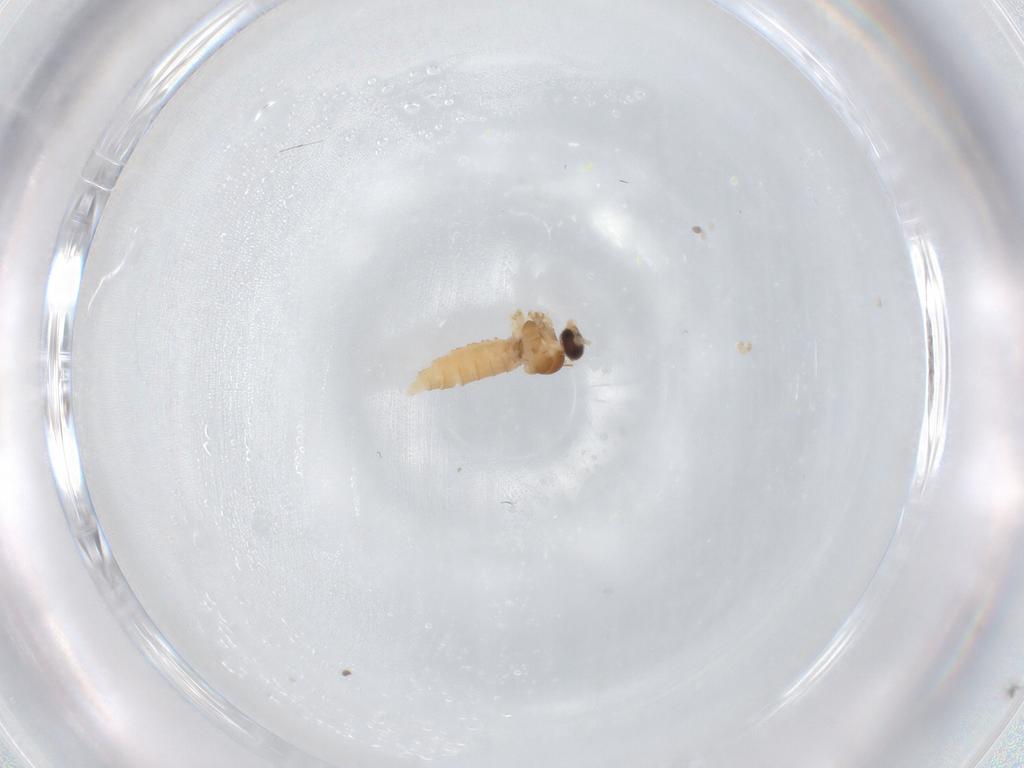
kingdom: Animalia
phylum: Arthropoda
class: Insecta
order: Diptera
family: Cecidomyiidae
